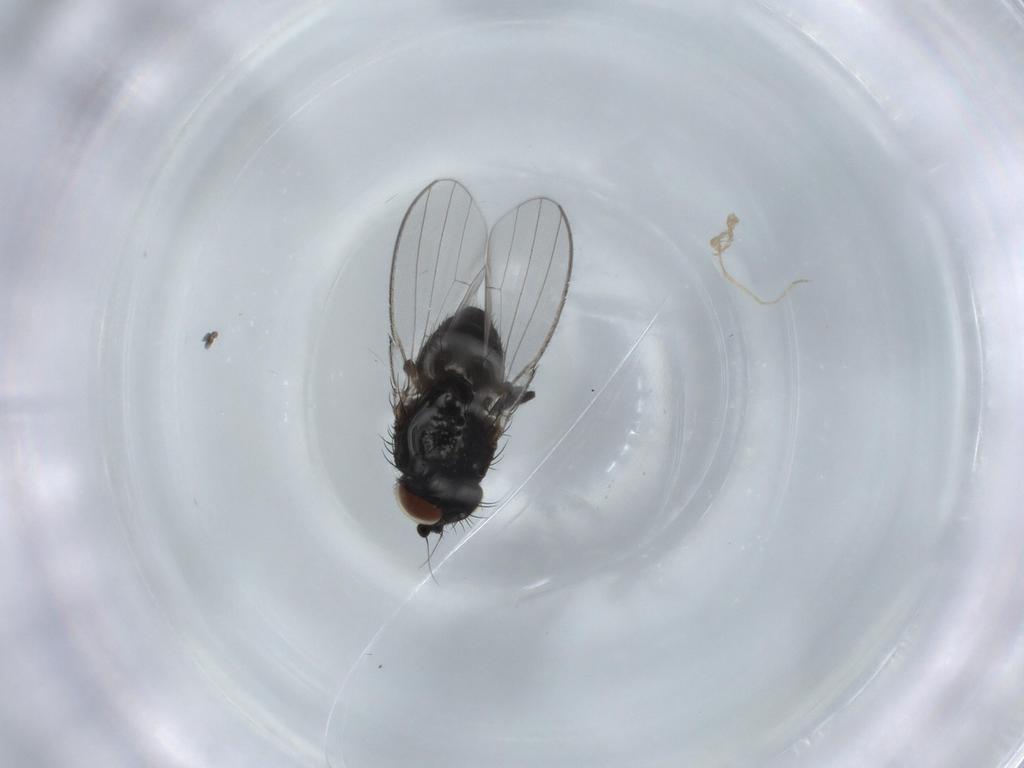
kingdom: Animalia
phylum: Arthropoda
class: Insecta
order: Diptera
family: Milichiidae
